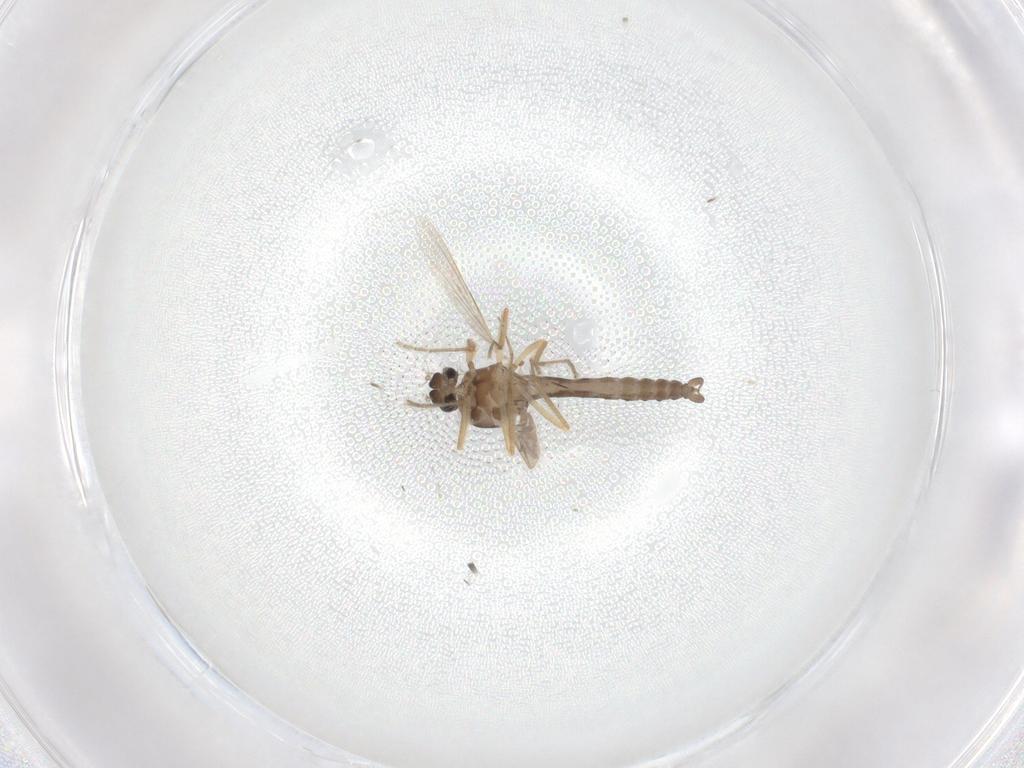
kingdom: Animalia
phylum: Arthropoda
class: Insecta
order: Diptera
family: Ceratopogonidae
